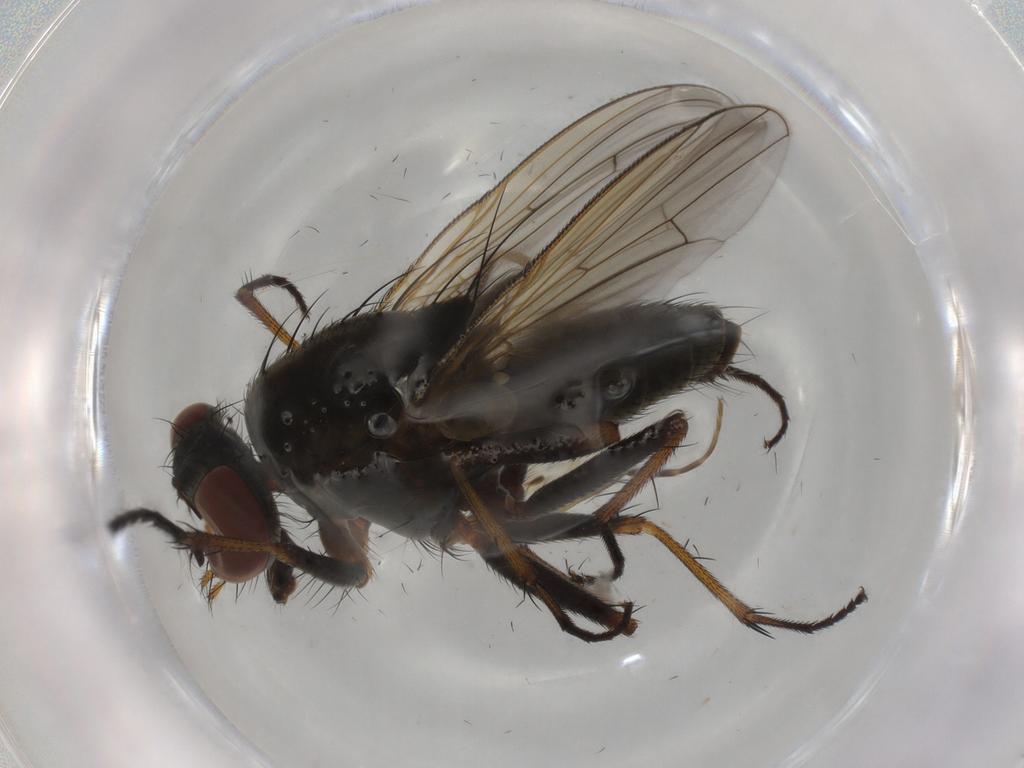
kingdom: Animalia
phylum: Arthropoda
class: Insecta
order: Diptera
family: Muscidae
